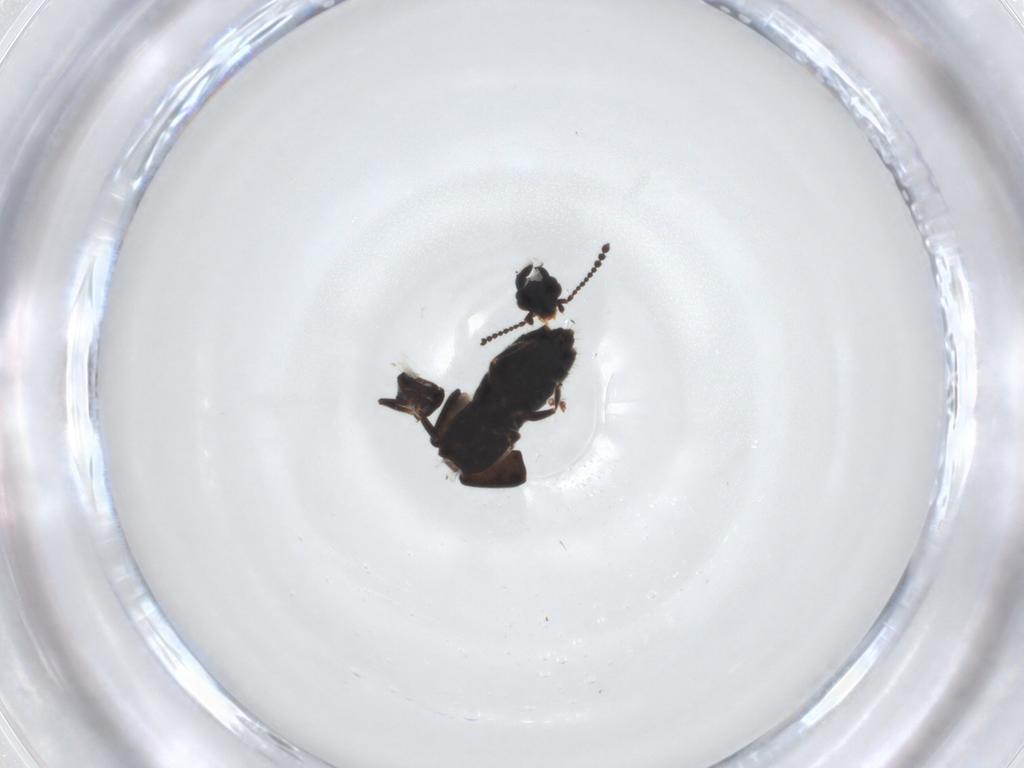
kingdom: Animalia
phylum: Arthropoda
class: Insecta
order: Coleoptera
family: Staphylinidae
